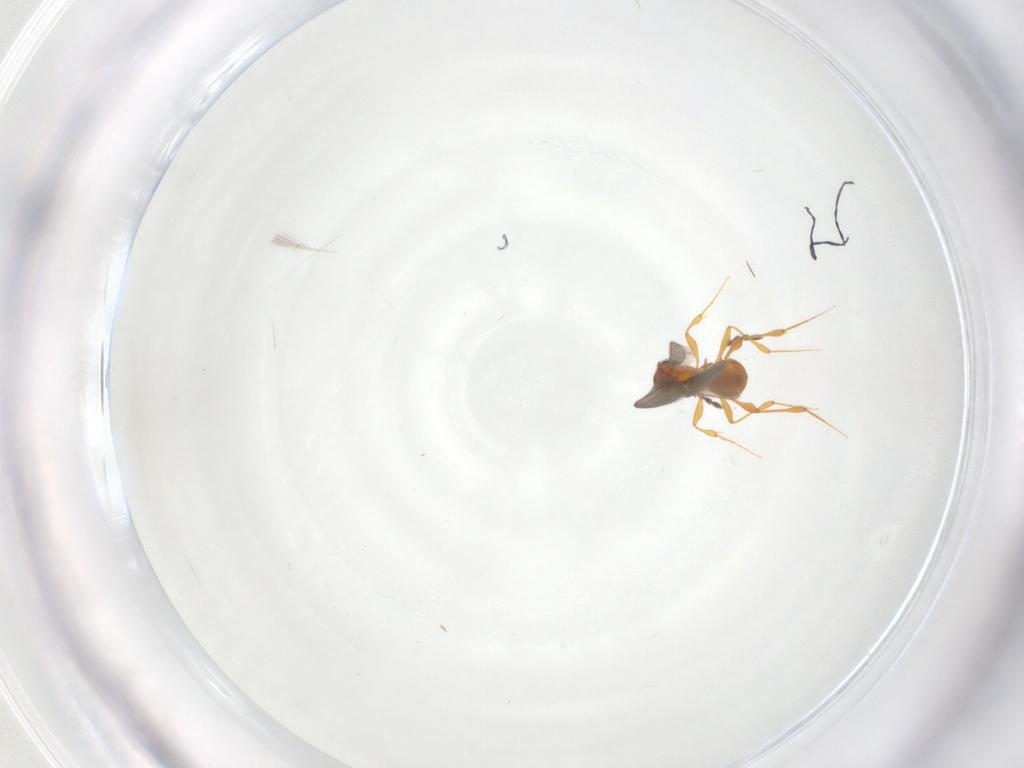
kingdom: Animalia
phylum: Arthropoda
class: Insecta
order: Hymenoptera
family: Platygastridae
